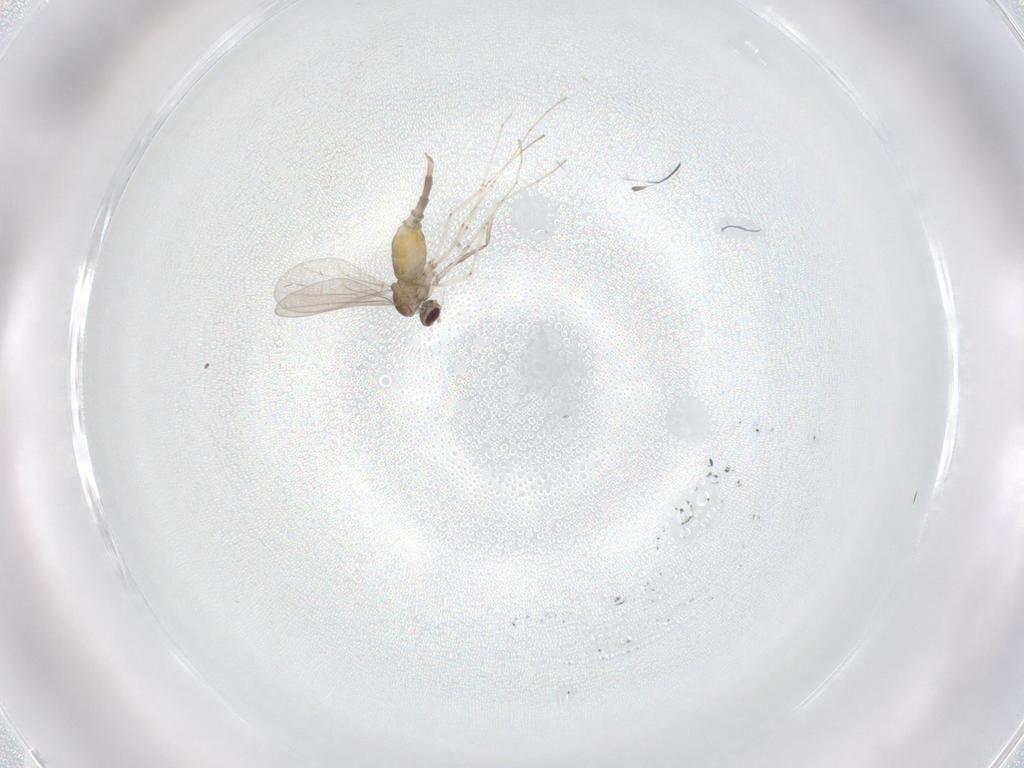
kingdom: Animalia
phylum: Arthropoda
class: Insecta
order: Diptera
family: Cecidomyiidae
